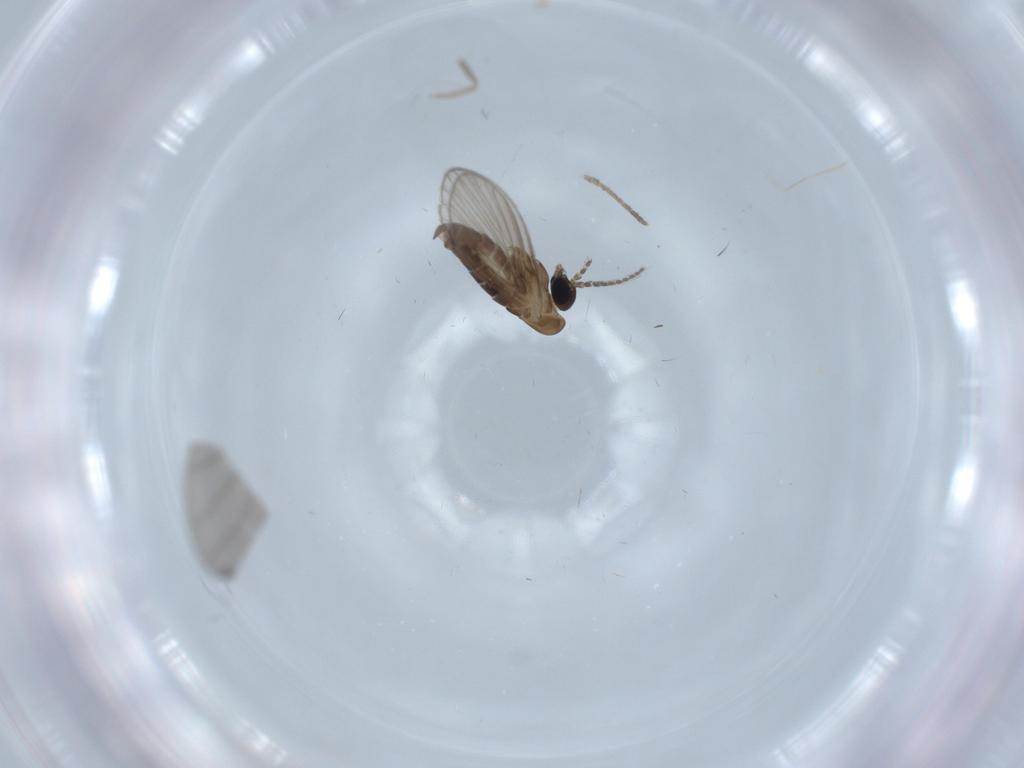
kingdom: Animalia
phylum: Arthropoda
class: Insecta
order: Diptera
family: Psychodidae
